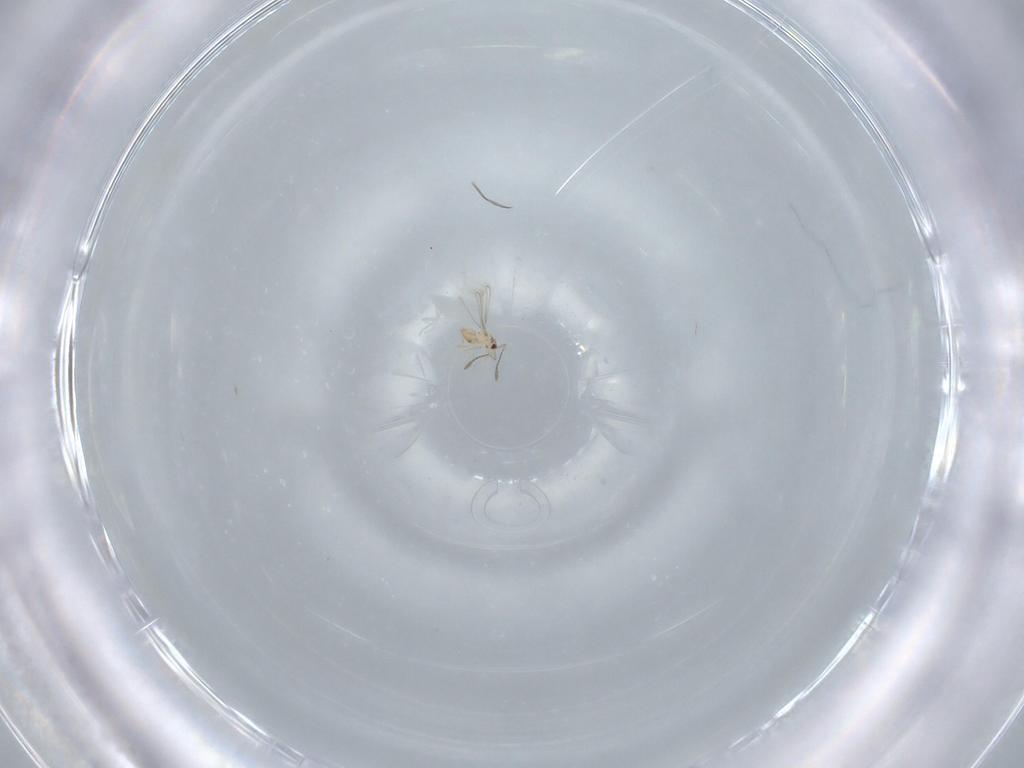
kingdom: Animalia
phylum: Arthropoda
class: Insecta
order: Hymenoptera
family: Mymaridae
